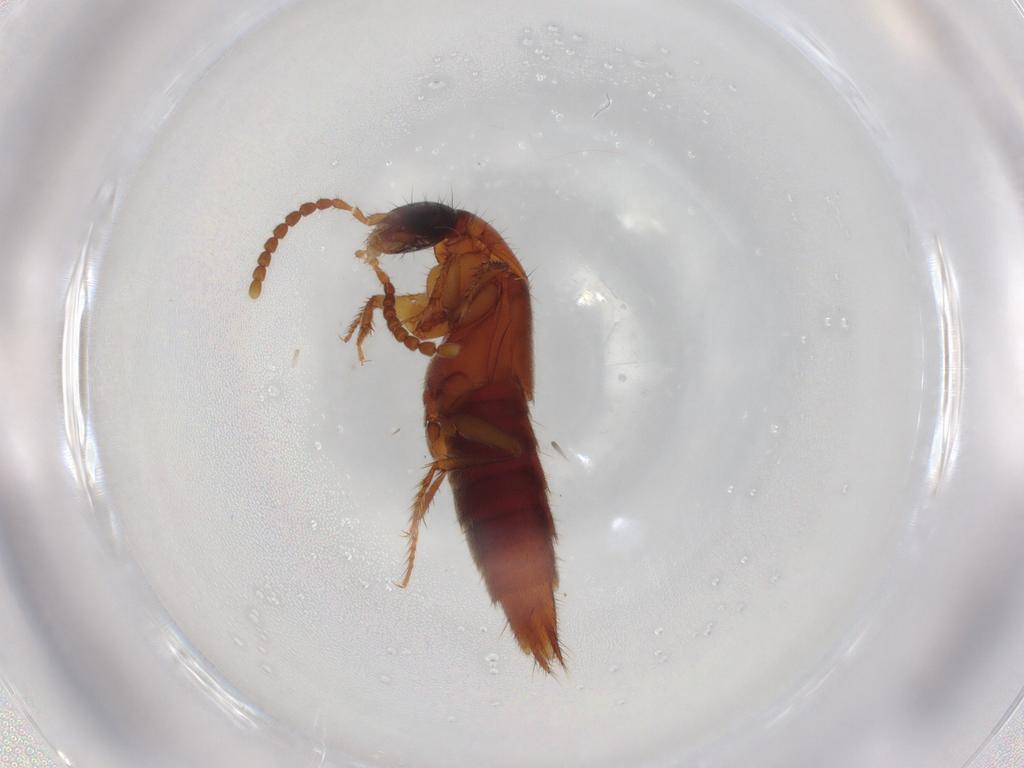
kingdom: Animalia
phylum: Arthropoda
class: Insecta
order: Coleoptera
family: Staphylinidae
